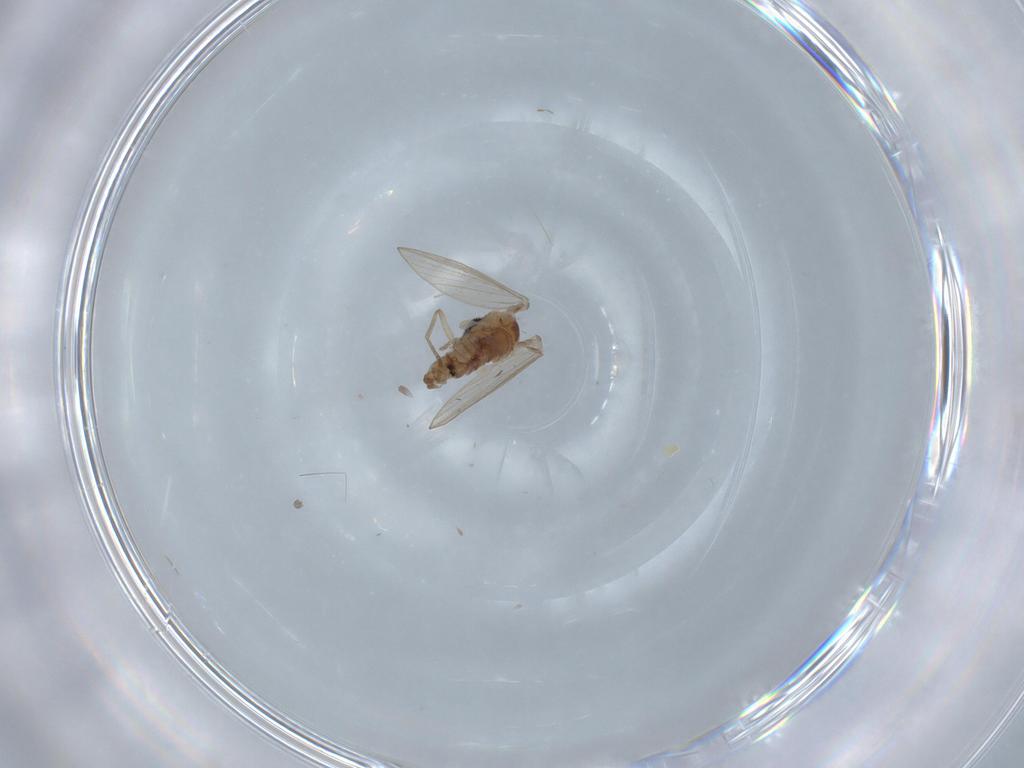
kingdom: Animalia
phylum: Arthropoda
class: Insecta
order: Diptera
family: Psychodidae
